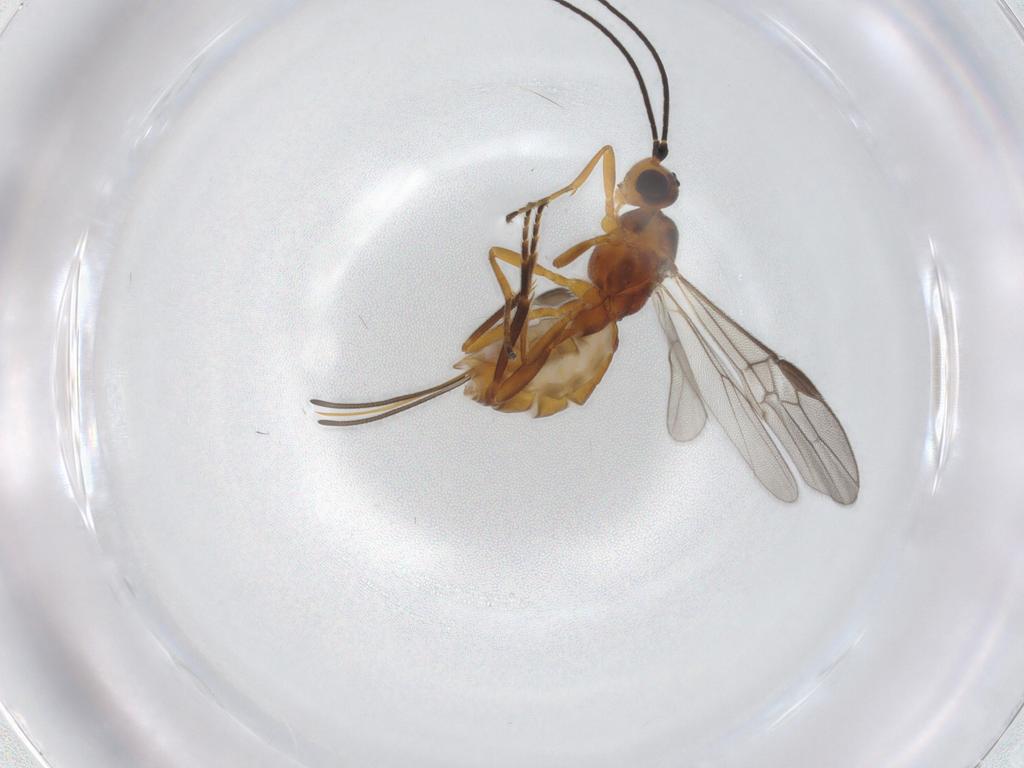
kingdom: Animalia
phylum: Arthropoda
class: Insecta
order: Hymenoptera
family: Braconidae
